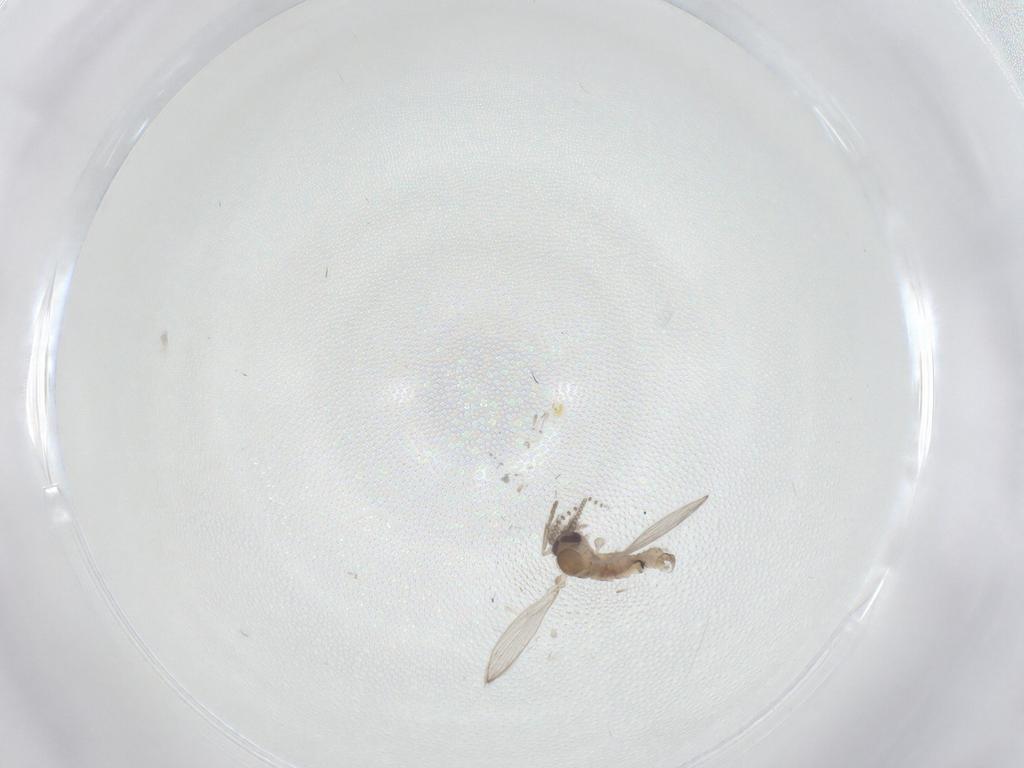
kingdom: Animalia
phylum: Arthropoda
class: Insecta
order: Diptera
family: Psychodidae
